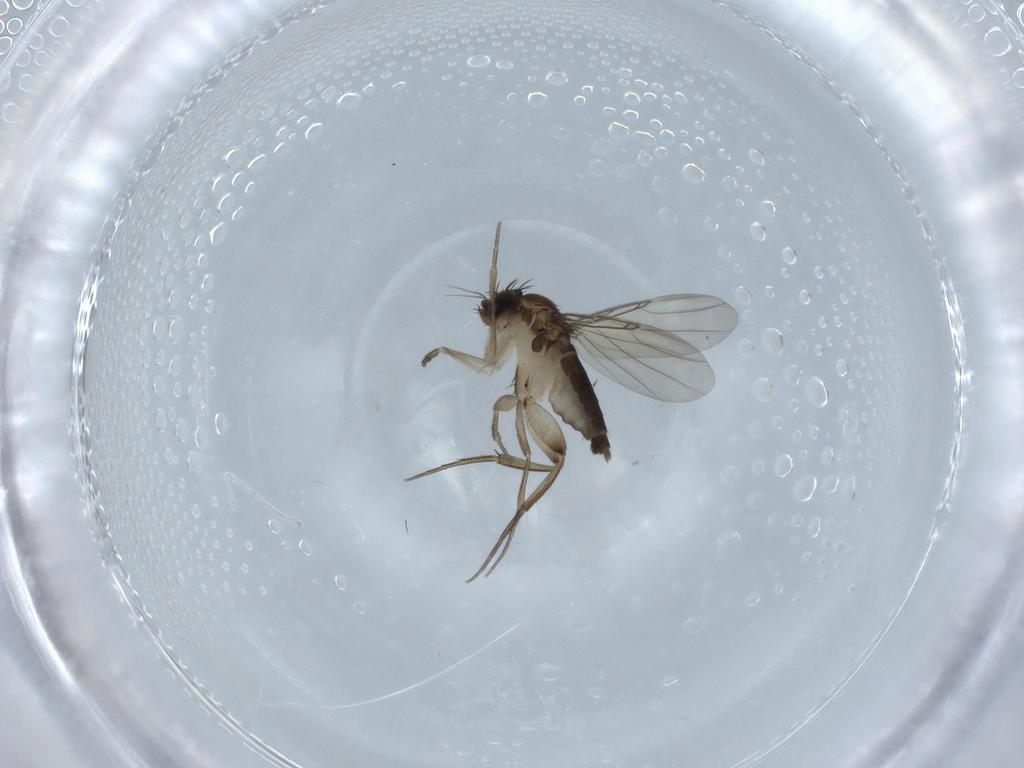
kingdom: Animalia
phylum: Arthropoda
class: Insecta
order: Diptera
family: Phoridae
